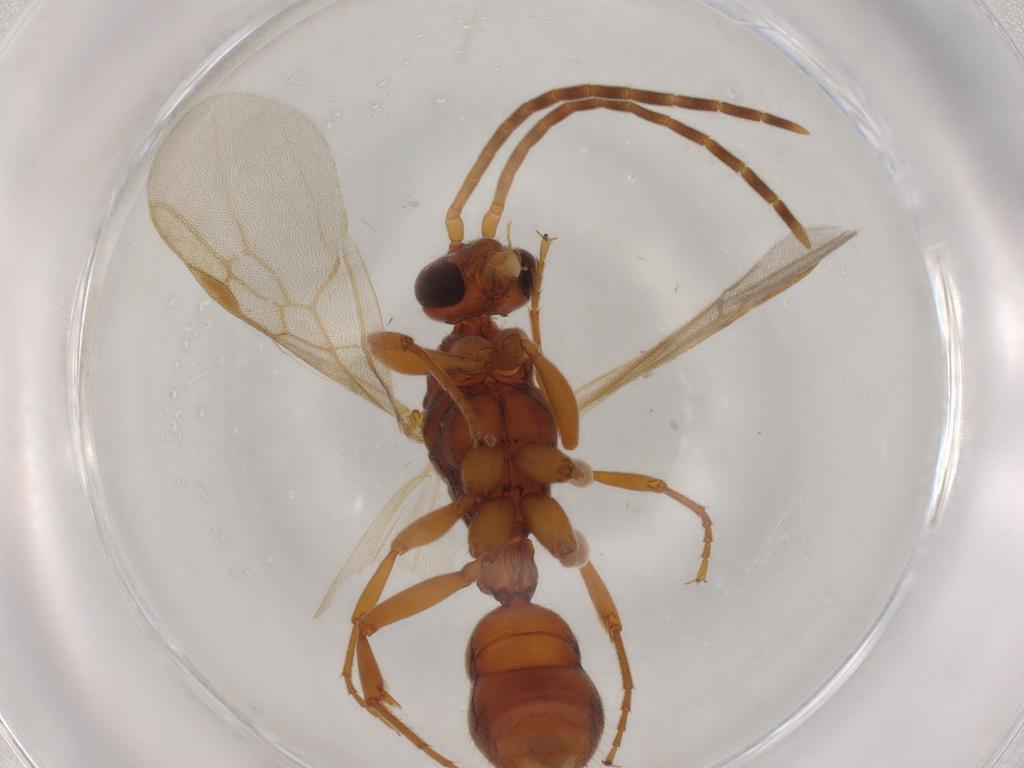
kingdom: Animalia
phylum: Arthropoda
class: Insecta
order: Hymenoptera
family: Formicidae
